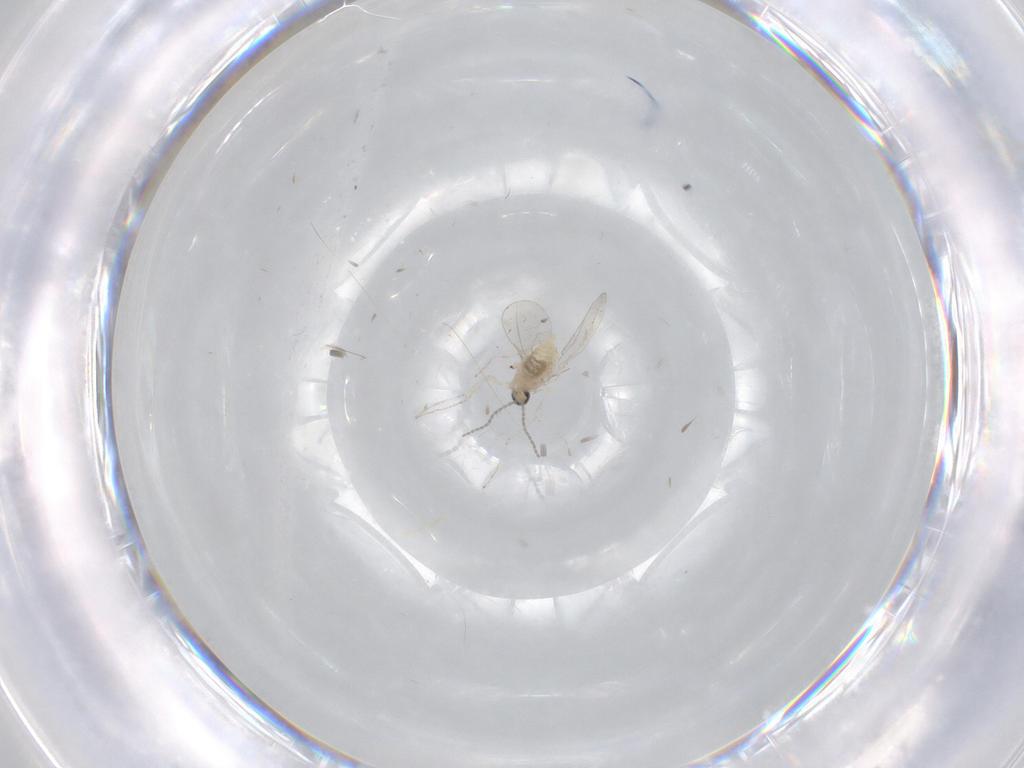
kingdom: Animalia
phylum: Arthropoda
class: Insecta
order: Diptera
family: Cecidomyiidae
